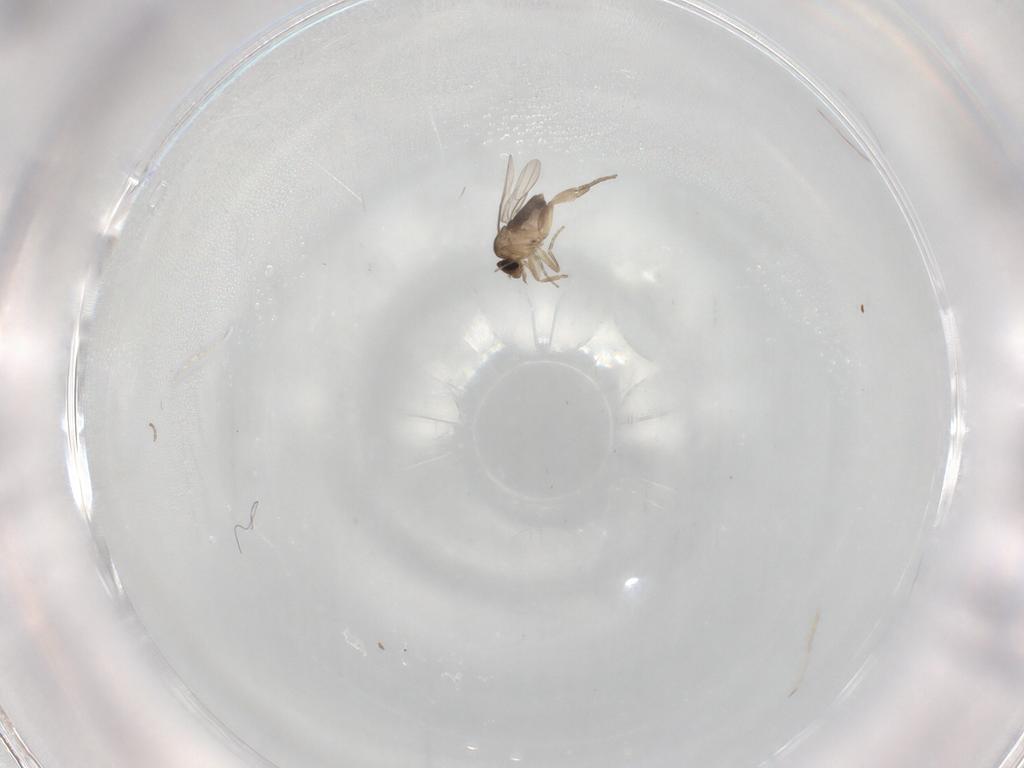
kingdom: Animalia
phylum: Arthropoda
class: Insecta
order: Diptera
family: Phoridae
